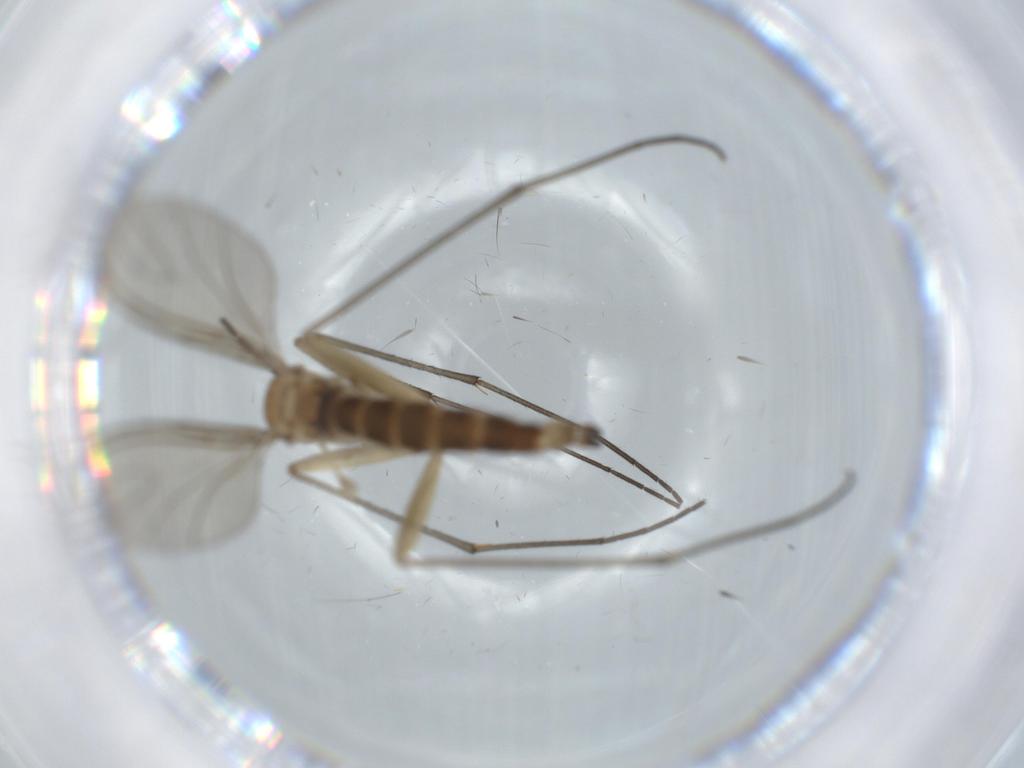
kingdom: Animalia
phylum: Arthropoda
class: Insecta
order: Diptera
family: Sciaridae
